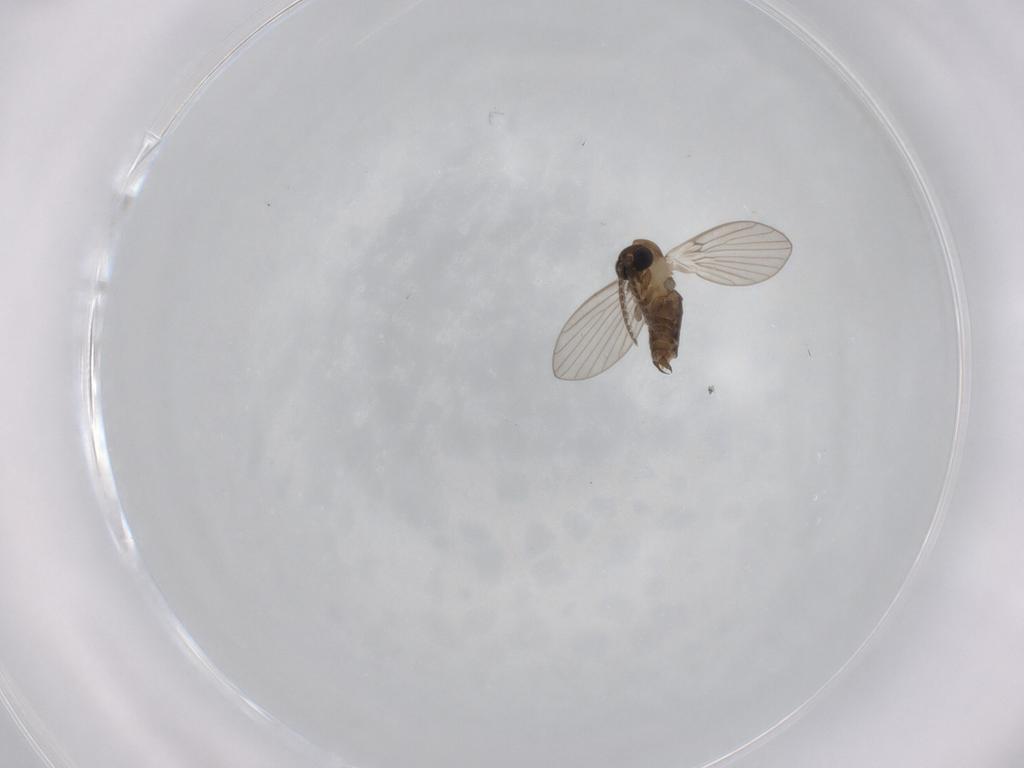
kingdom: Animalia
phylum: Arthropoda
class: Insecta
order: Diptera
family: Psychodidae
